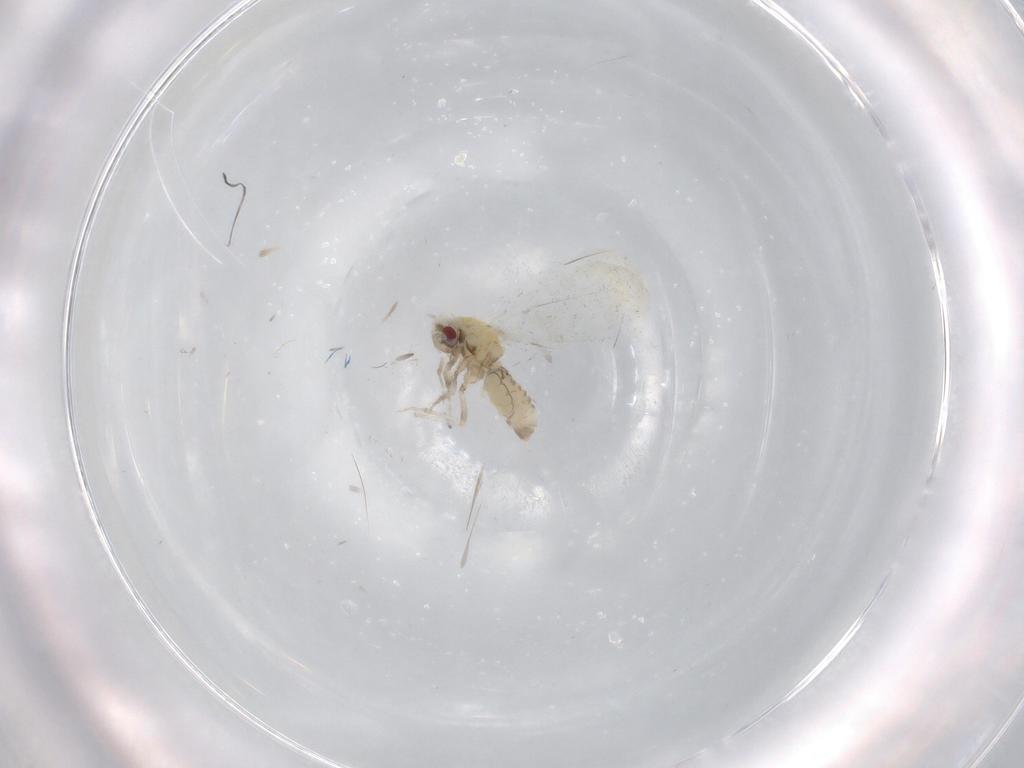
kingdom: Animalia
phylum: Arthropoda
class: Insecta
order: Hemiptera
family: Aleyrodidae
